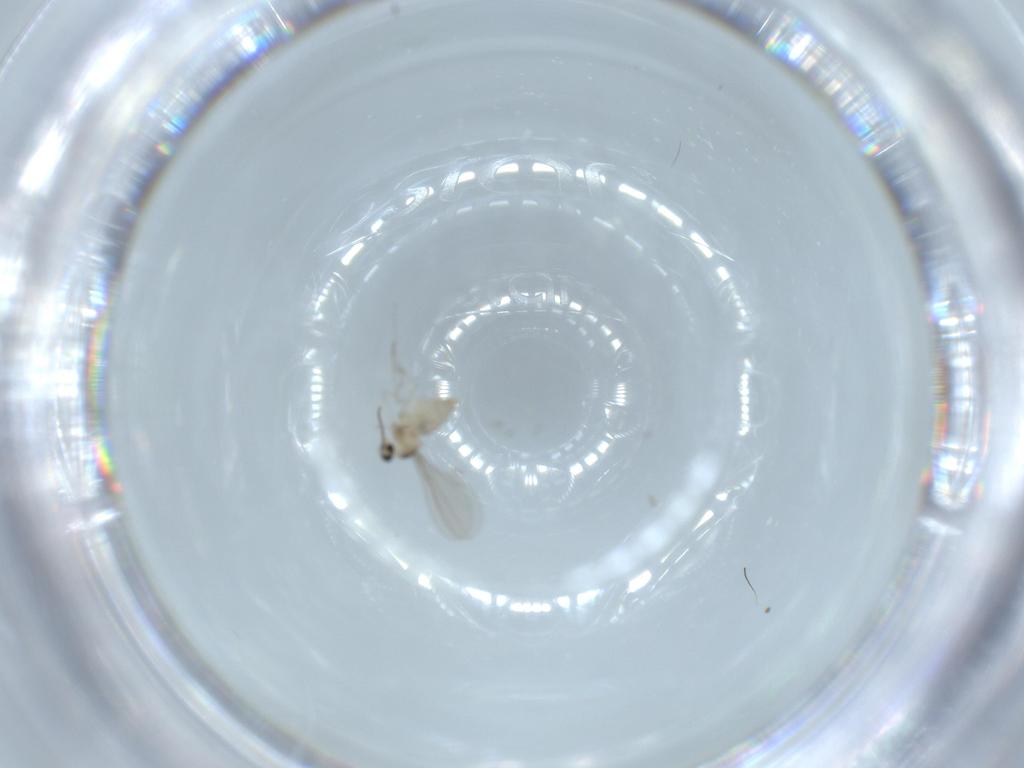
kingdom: Animalia
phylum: Arthropoda
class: Insecta
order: Diptera
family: Cecidomyiidae
